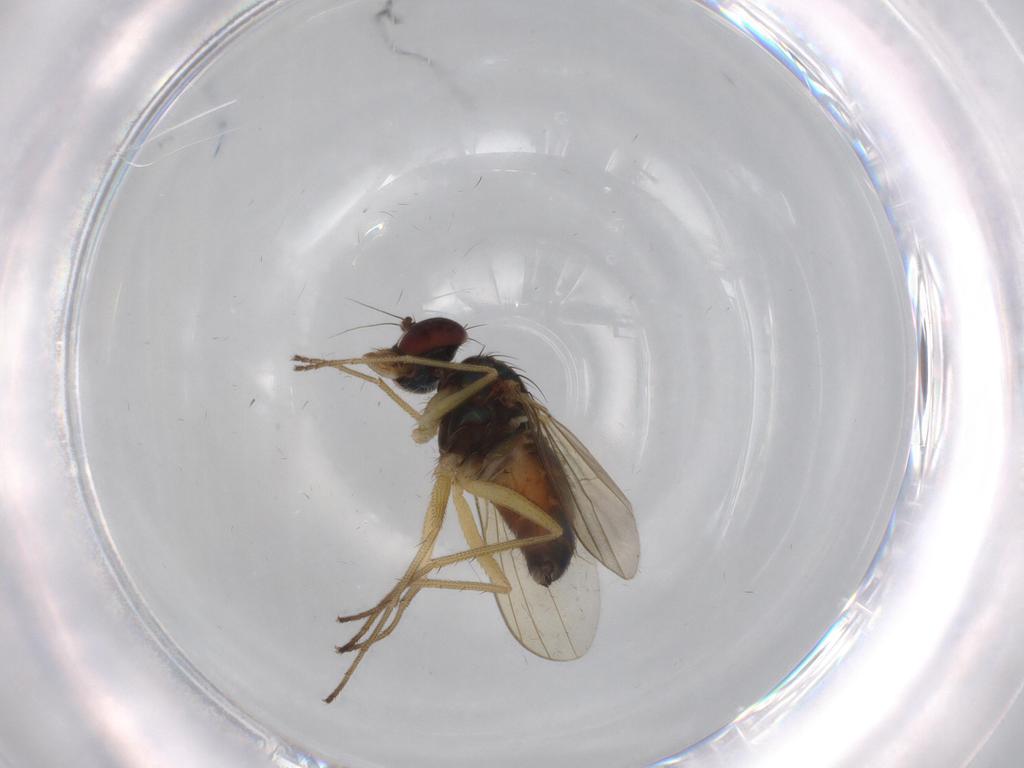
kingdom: Animalia
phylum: Arthropoda
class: Insecta
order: Diptera
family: Dolichopodidae
